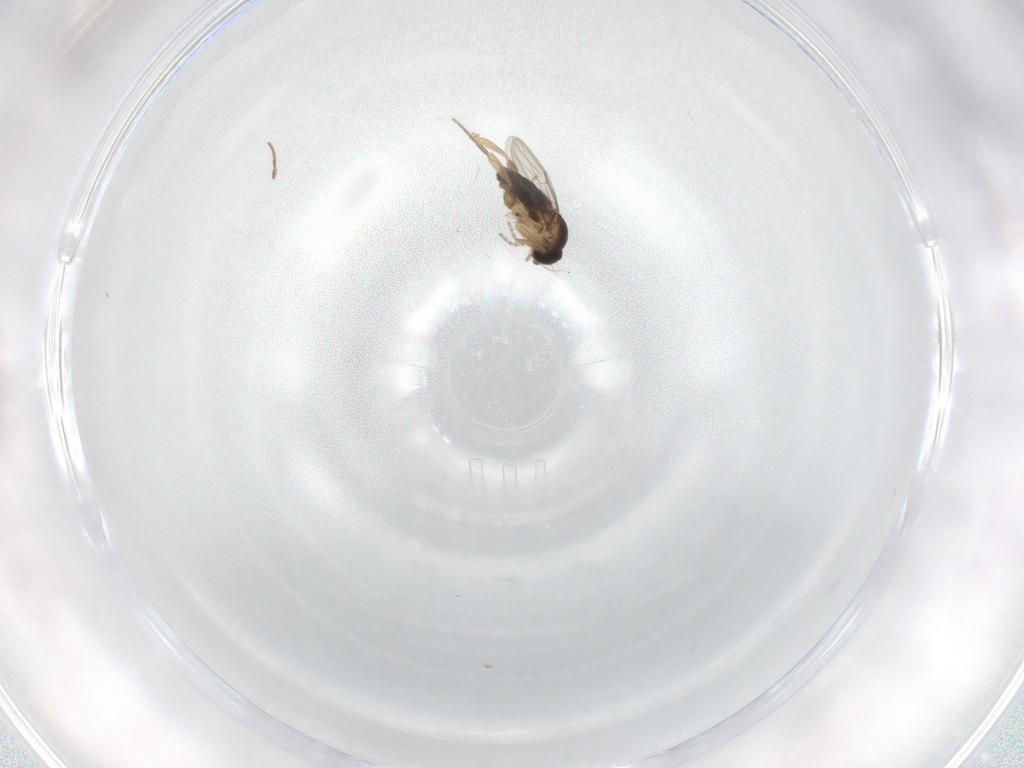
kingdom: Animalia
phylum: Arthropoda
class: Insecta
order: Diptera
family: Phoridae
